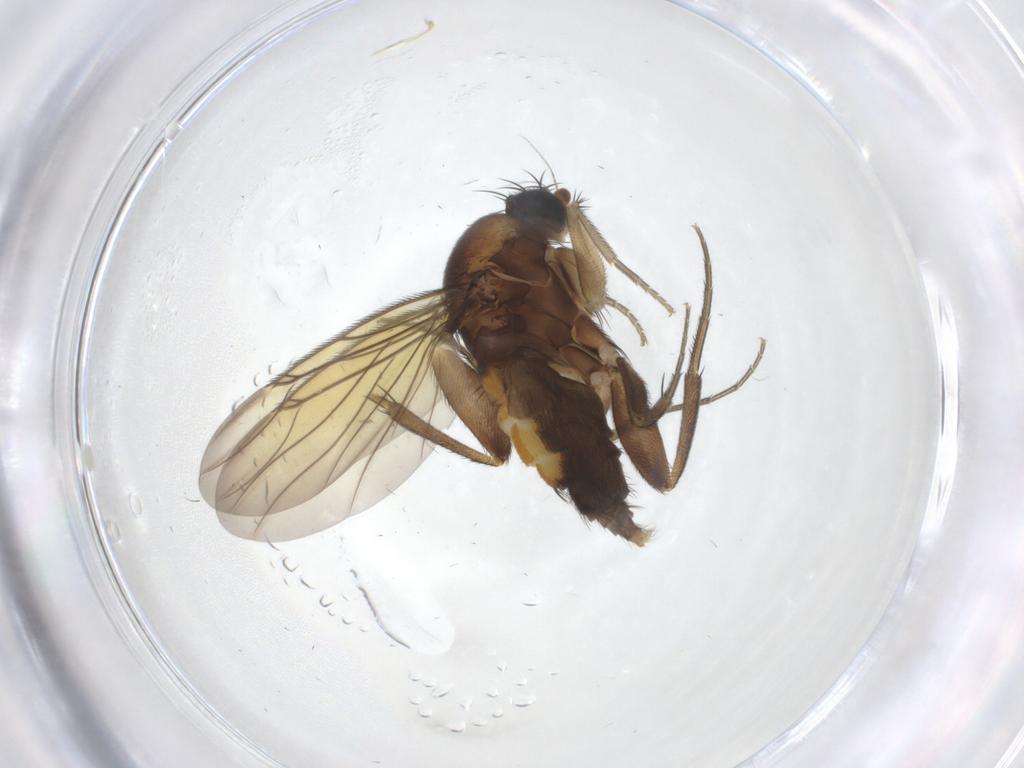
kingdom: Animalia
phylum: Arthropoda
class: Insecta
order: Diptera
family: Phoridae
